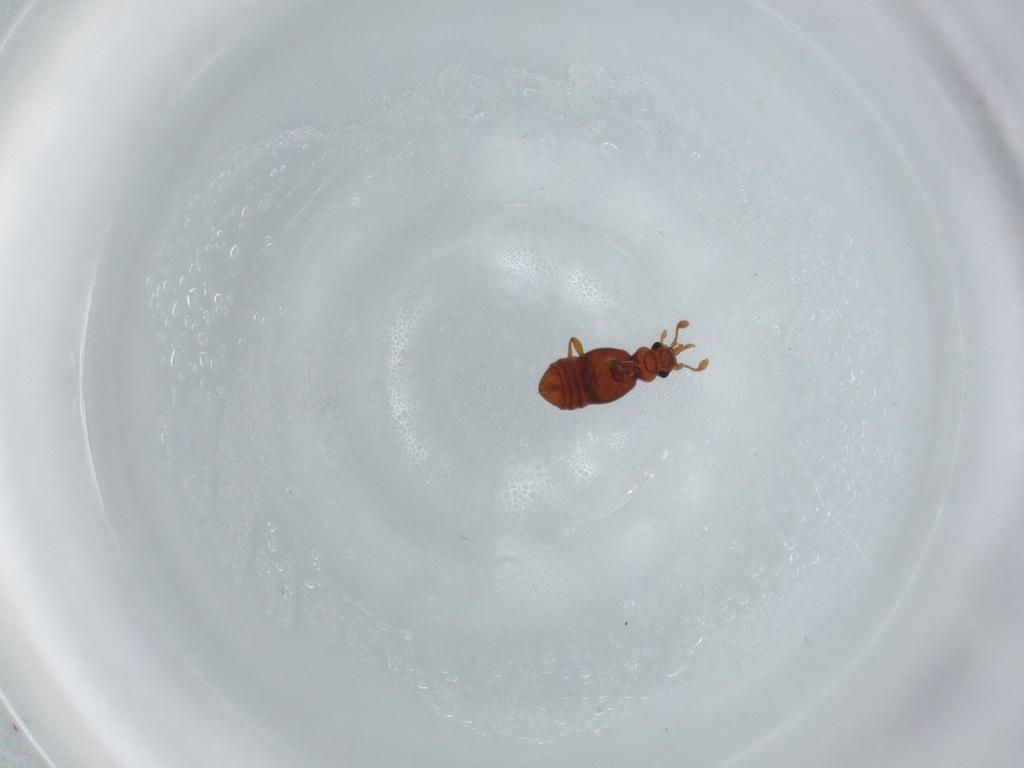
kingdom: Animalia
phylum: Arthropoda
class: Insecta
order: Coleoptera
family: Staphylinidae
